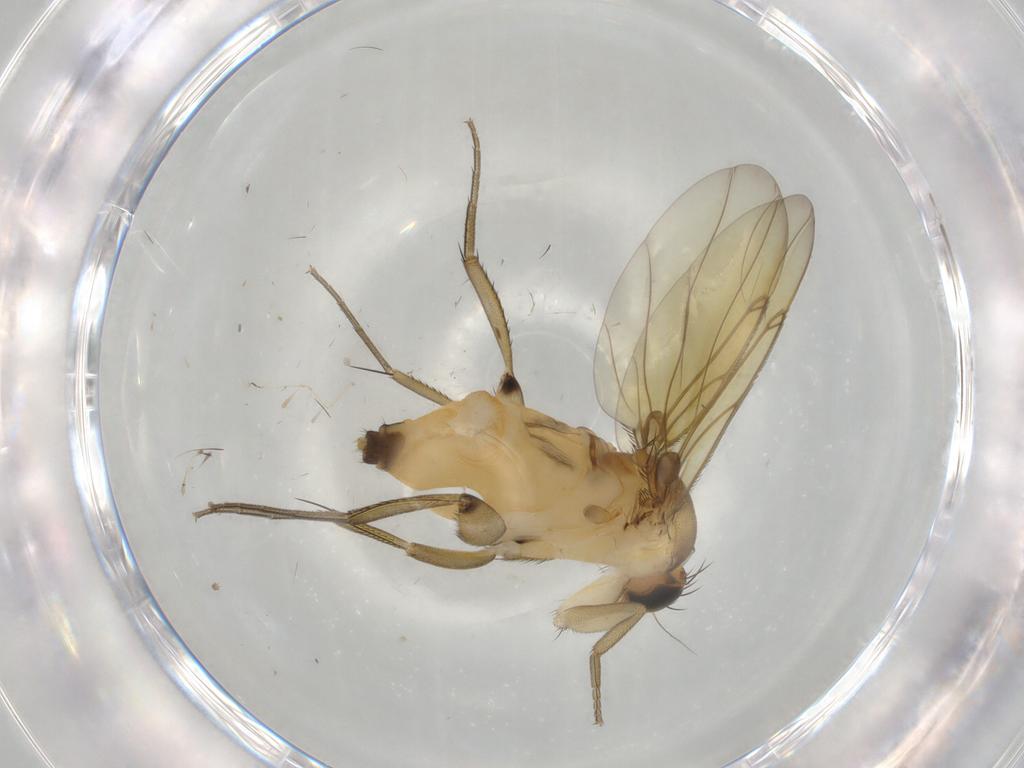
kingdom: Animalia
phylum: Arthropoda
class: Insecta
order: Diptera
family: Phoridae
